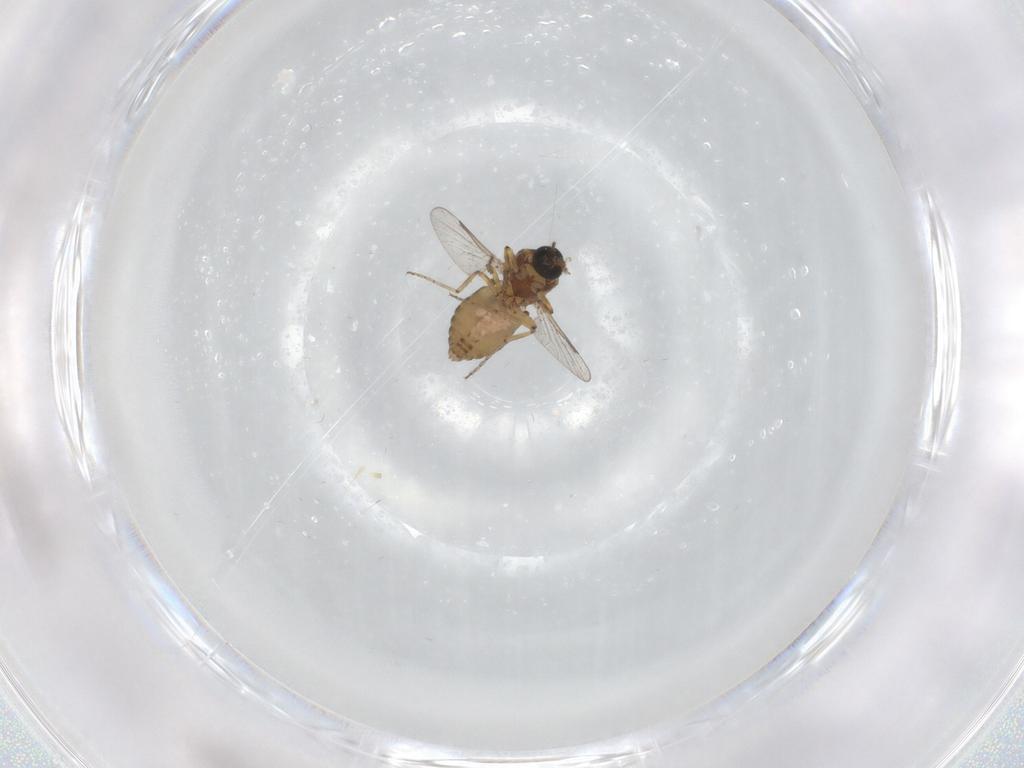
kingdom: Animalia
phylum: Arthropoda
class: Insecta
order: Diptera
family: Ceratopogonidae
